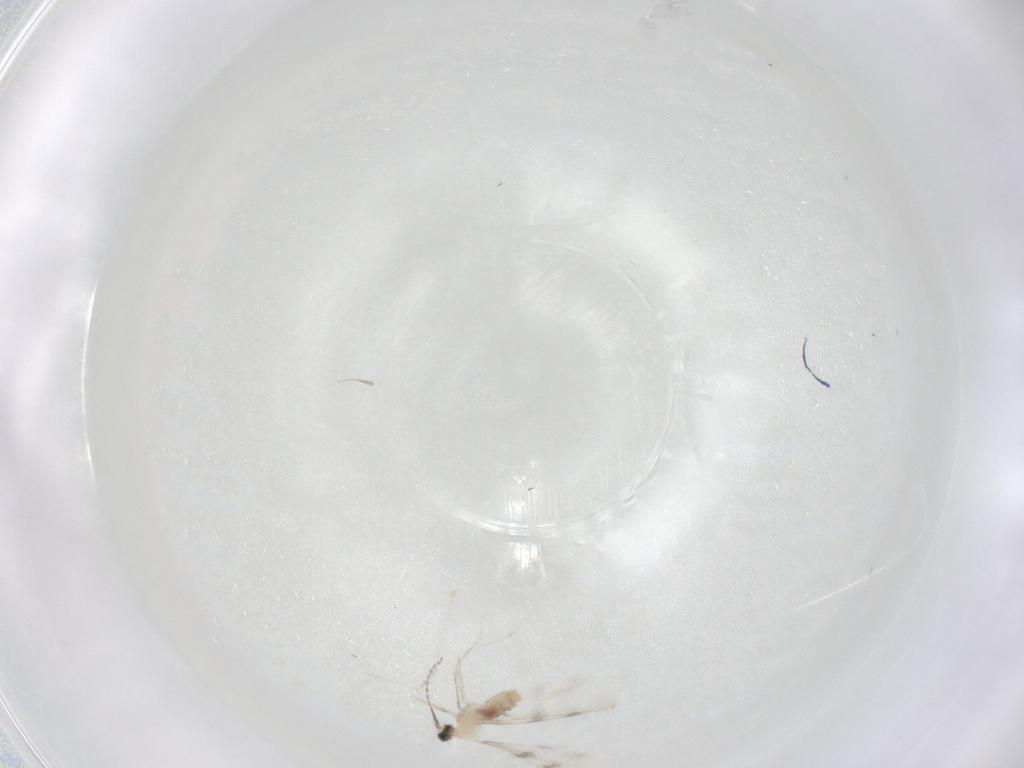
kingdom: Animalia
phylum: Arthropoda
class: Insecta
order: Diptera
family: Cecidomyiidae
